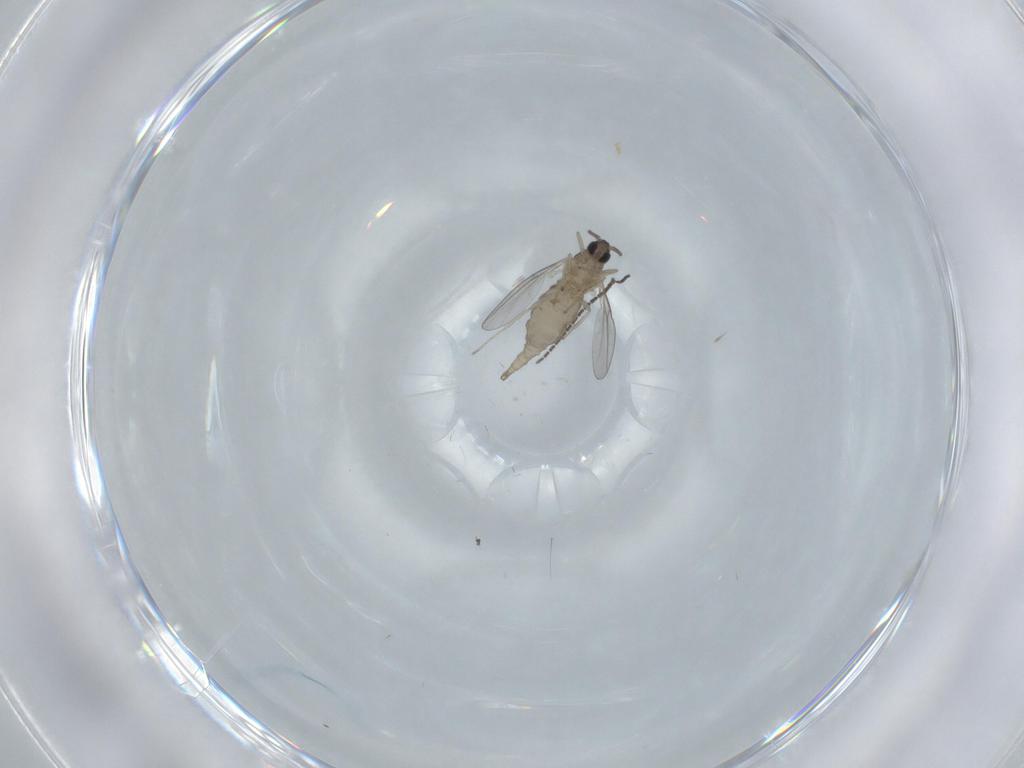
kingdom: Animalia
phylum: Arthropoda
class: Insecta
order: Diptera
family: Cecidomyiidae
